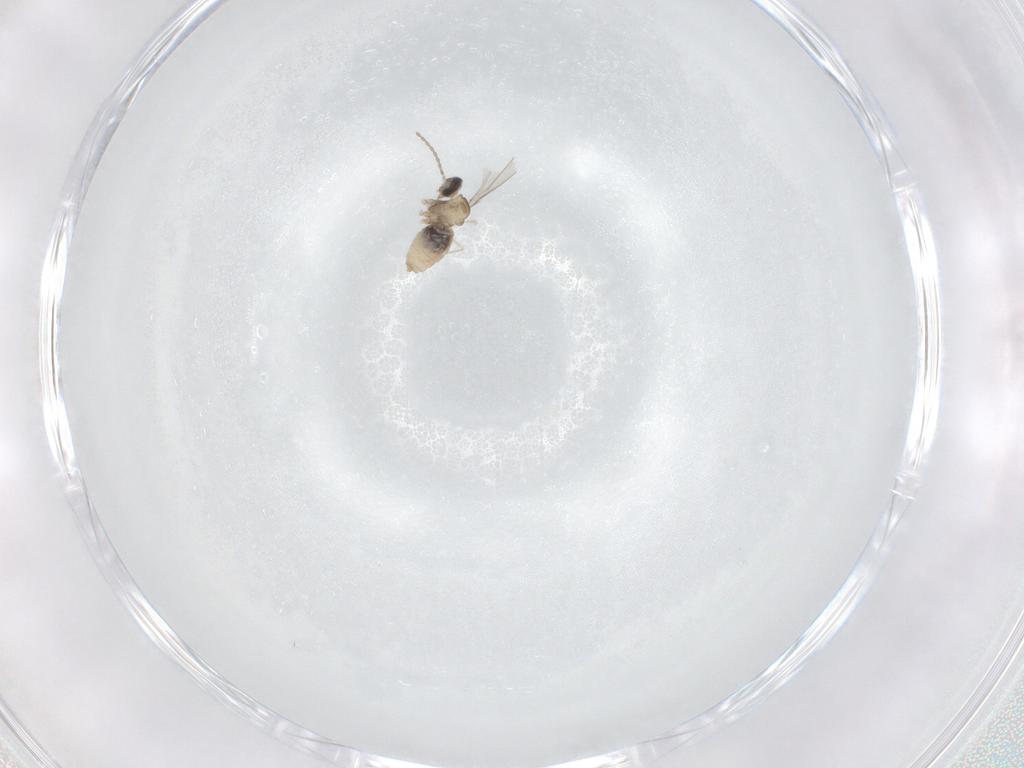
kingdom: Animalia
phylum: Arthropoda
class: Insecta
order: Diptera
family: Cecidomyiidae
